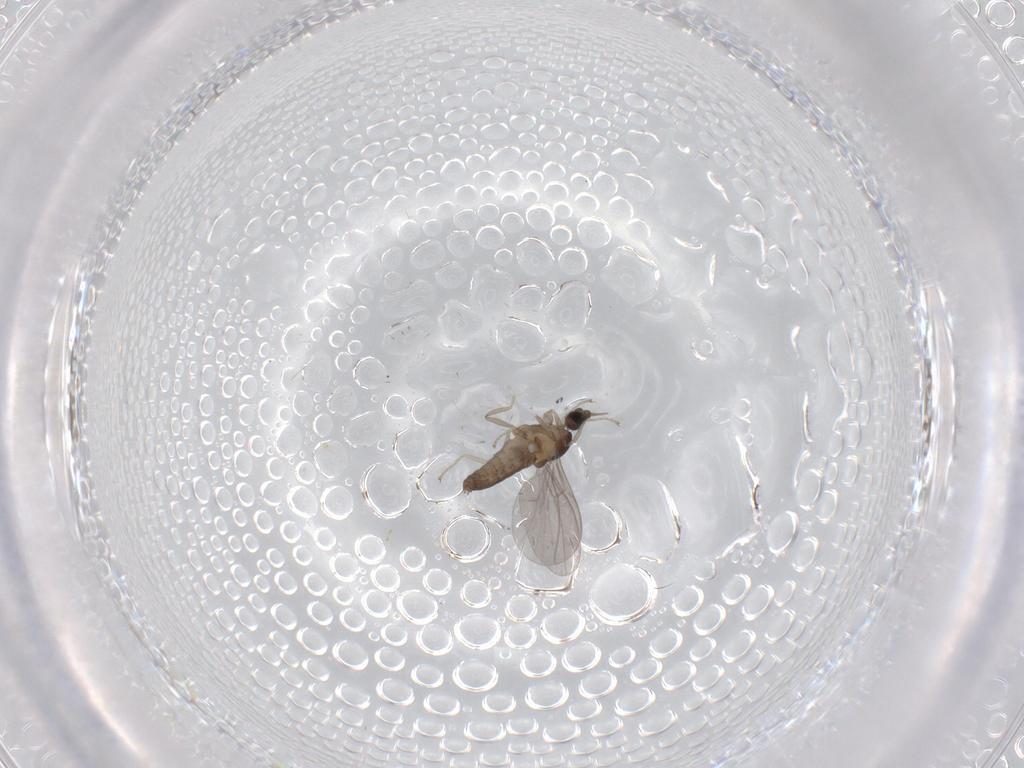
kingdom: Animalia
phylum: Arthropoda
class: Insecta
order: Diptera
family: Cecidomyiidae
